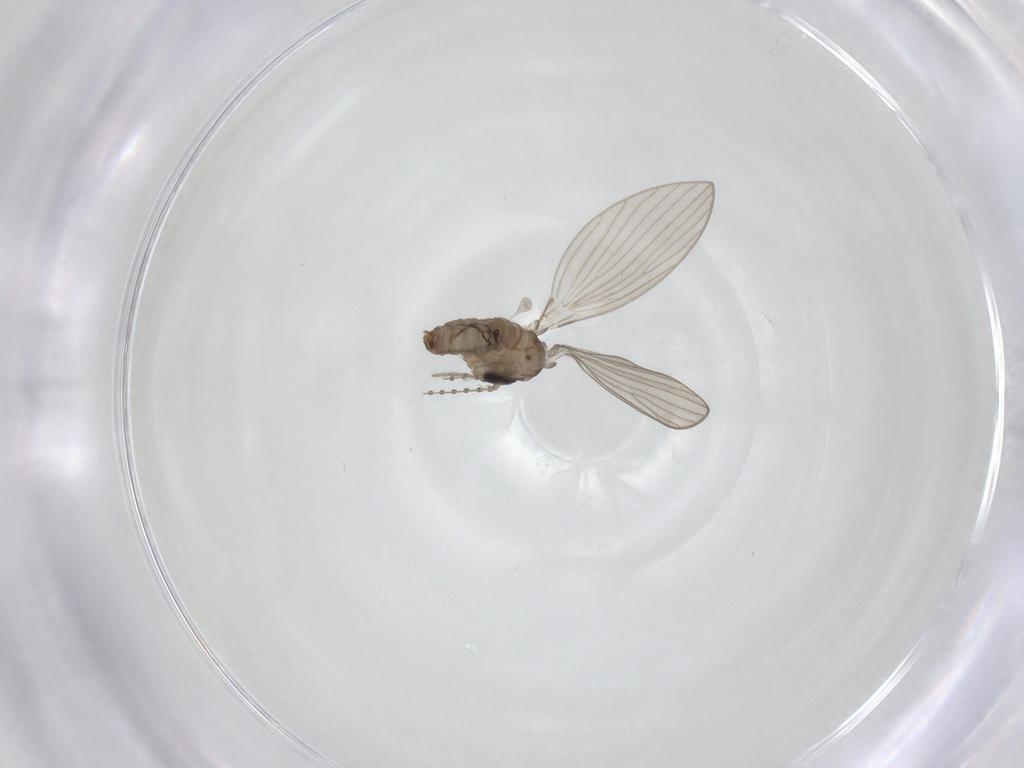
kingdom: Animalia
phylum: Arthropoda
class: Insecta
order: Diptera
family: Psychodidae
